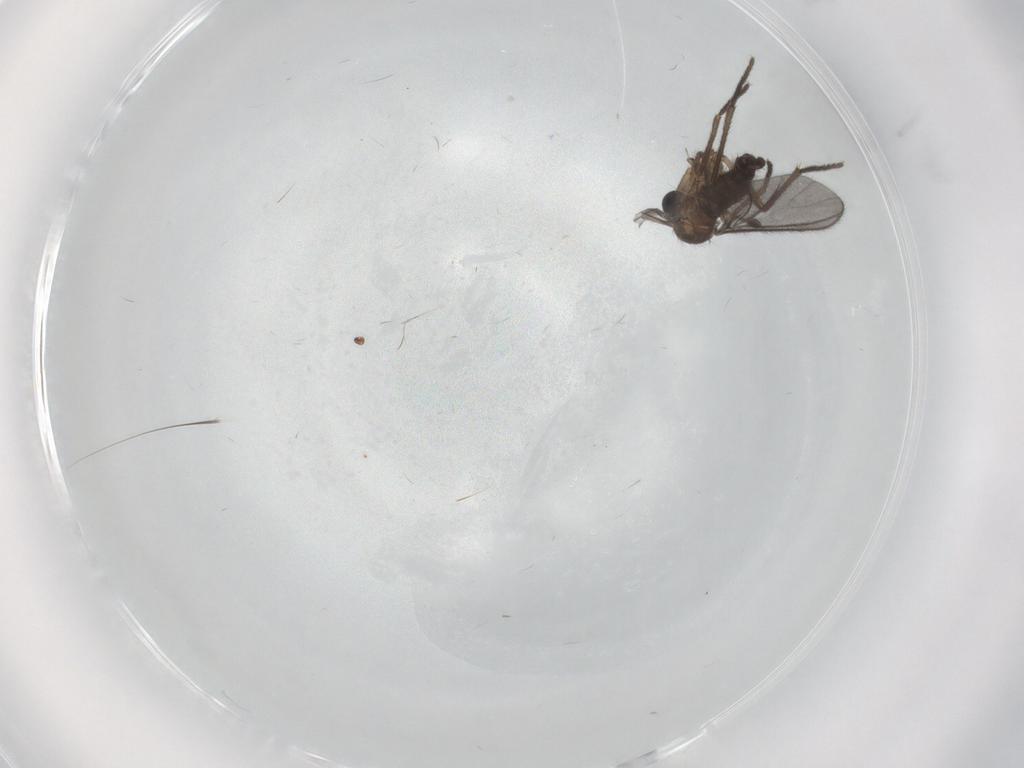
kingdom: Animalia
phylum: Arthropoda
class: Insecta
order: Diptera
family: Sciaridae
